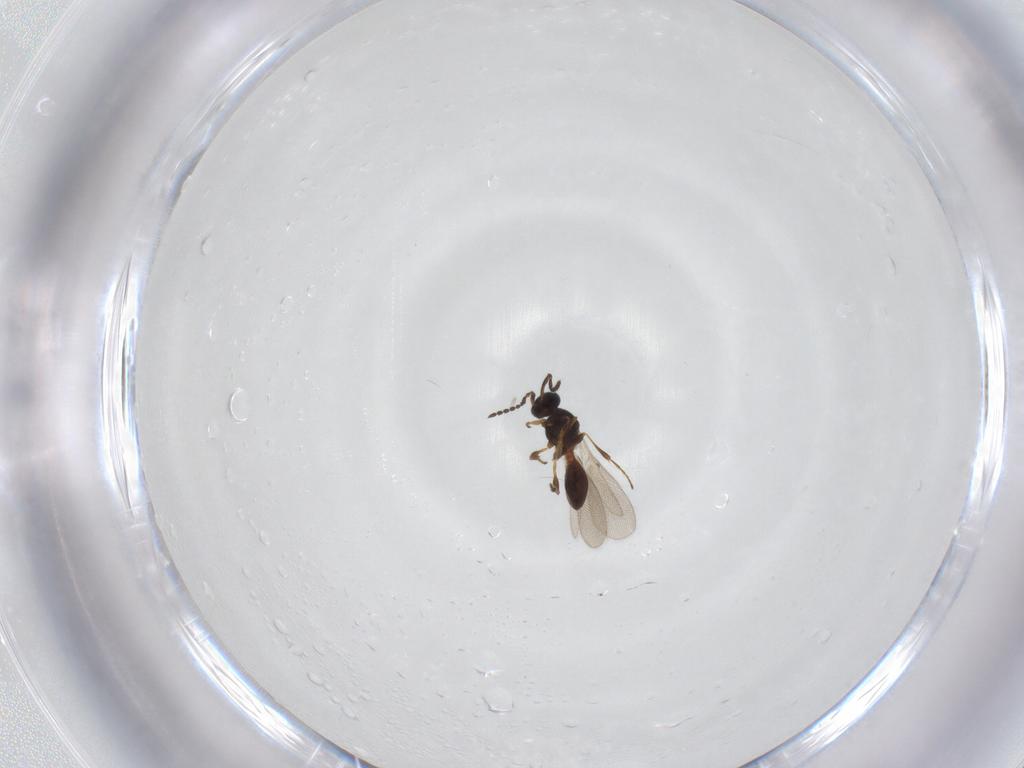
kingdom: Animalia
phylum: Arthropoda
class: Insecta
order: Hymenoptera
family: Platygastridae
